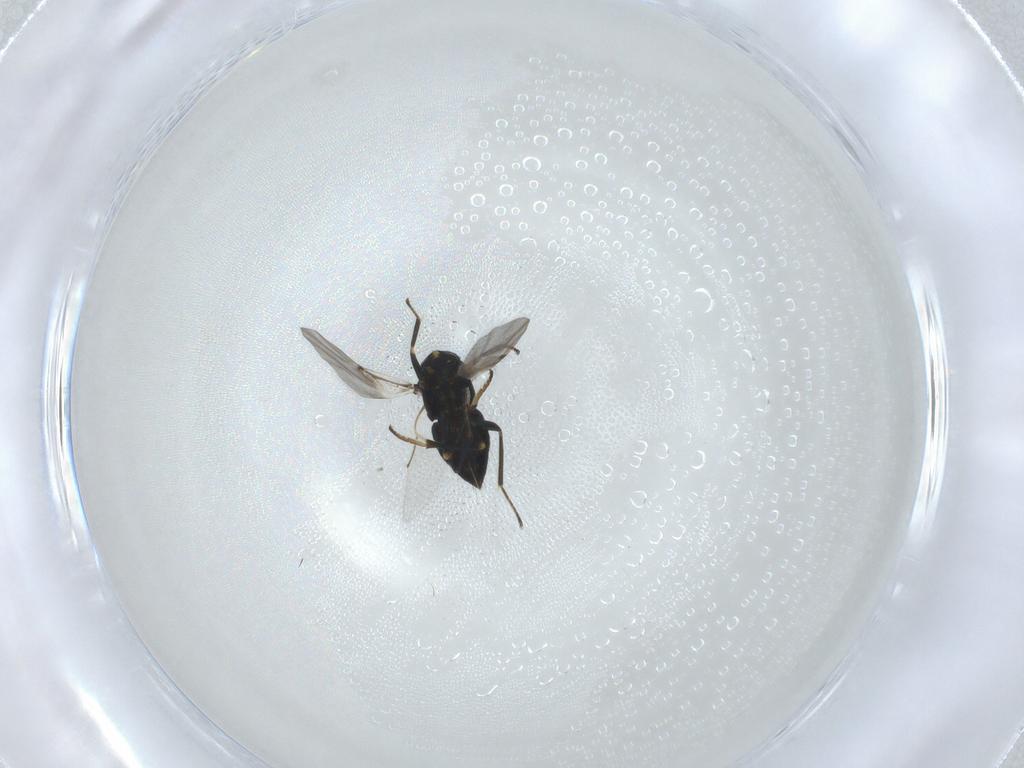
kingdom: Animalia
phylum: Arthropoda
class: Insecta
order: Hymenoptera
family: Encyrtidae
